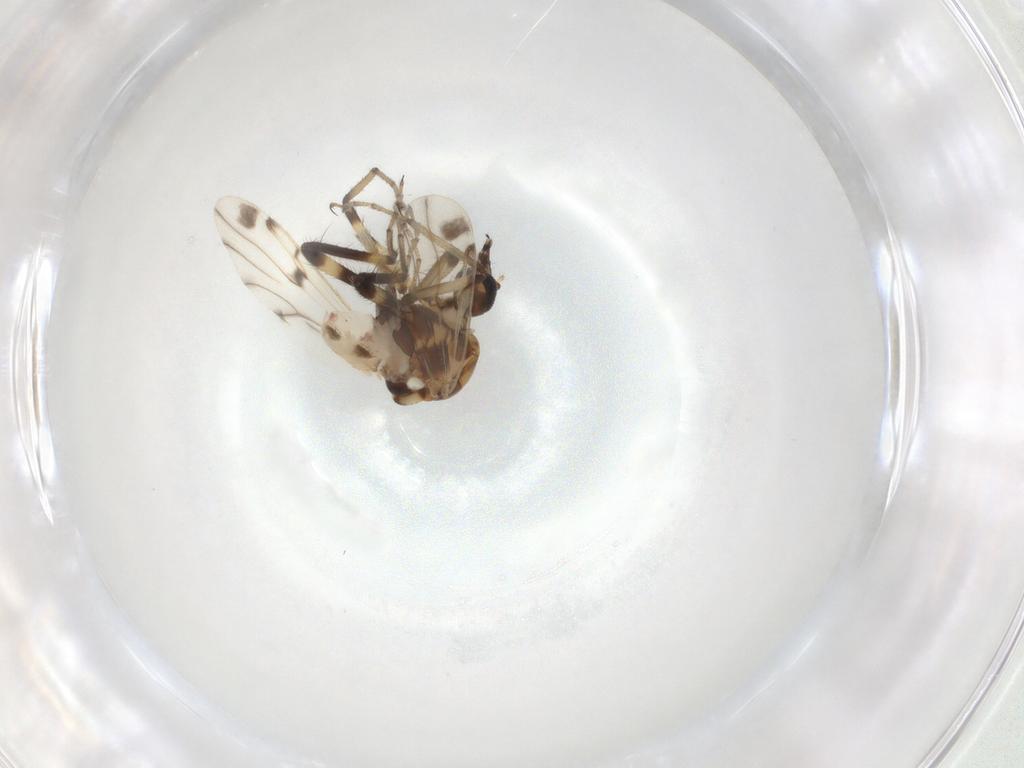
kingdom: Animalia
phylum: Arthropoda
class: Insecta
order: Diptera
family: Ceratopogonidae
